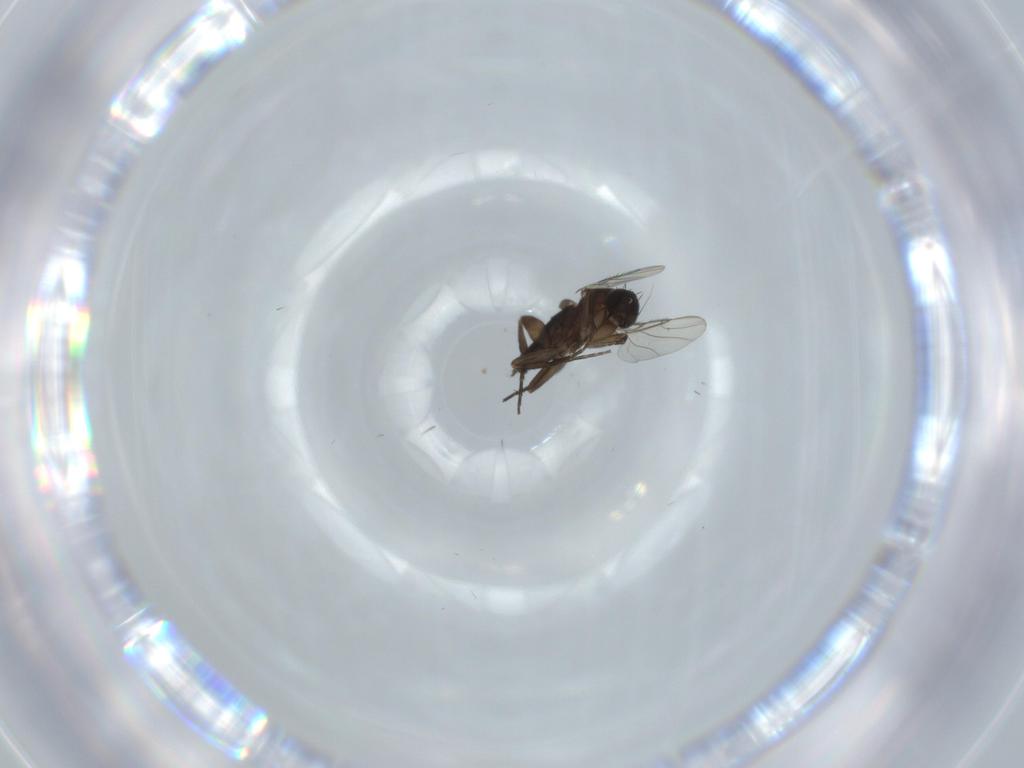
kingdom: Animalia
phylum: Arthropoda
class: Insecta
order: Diptera
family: Phoridae
